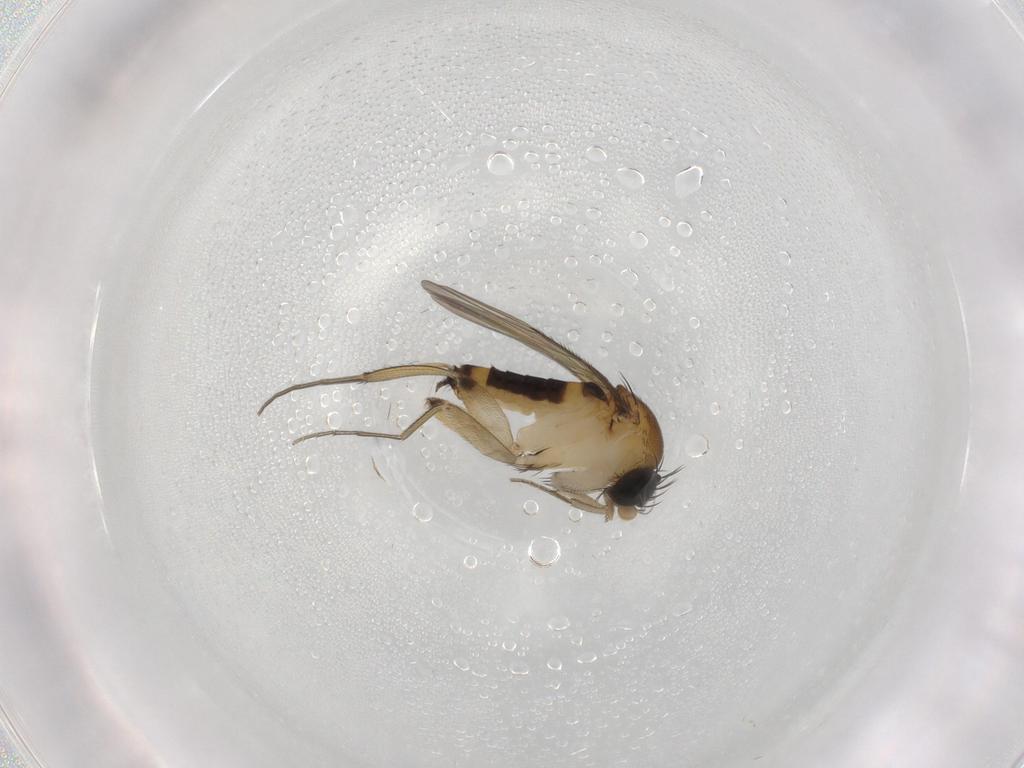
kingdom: Animalia
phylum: Arthropoda
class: Insecta
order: Diptera
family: Phoridae
